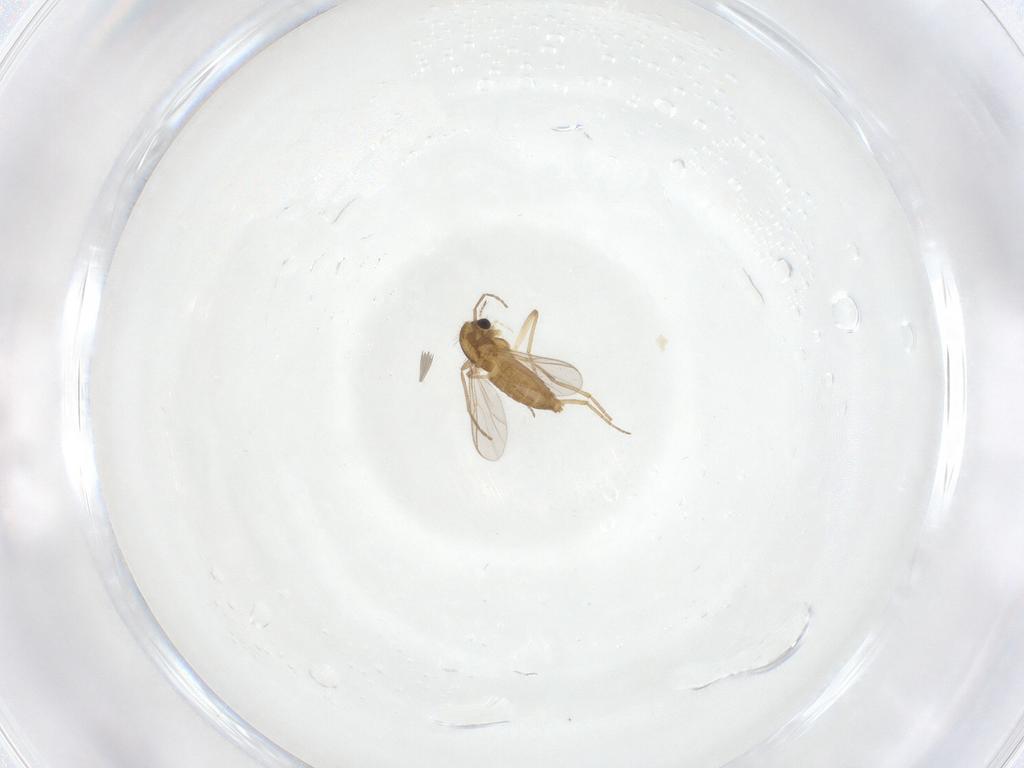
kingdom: Animalia
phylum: Arthropoda
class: Insecta
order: Diptera
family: Chironomidae
